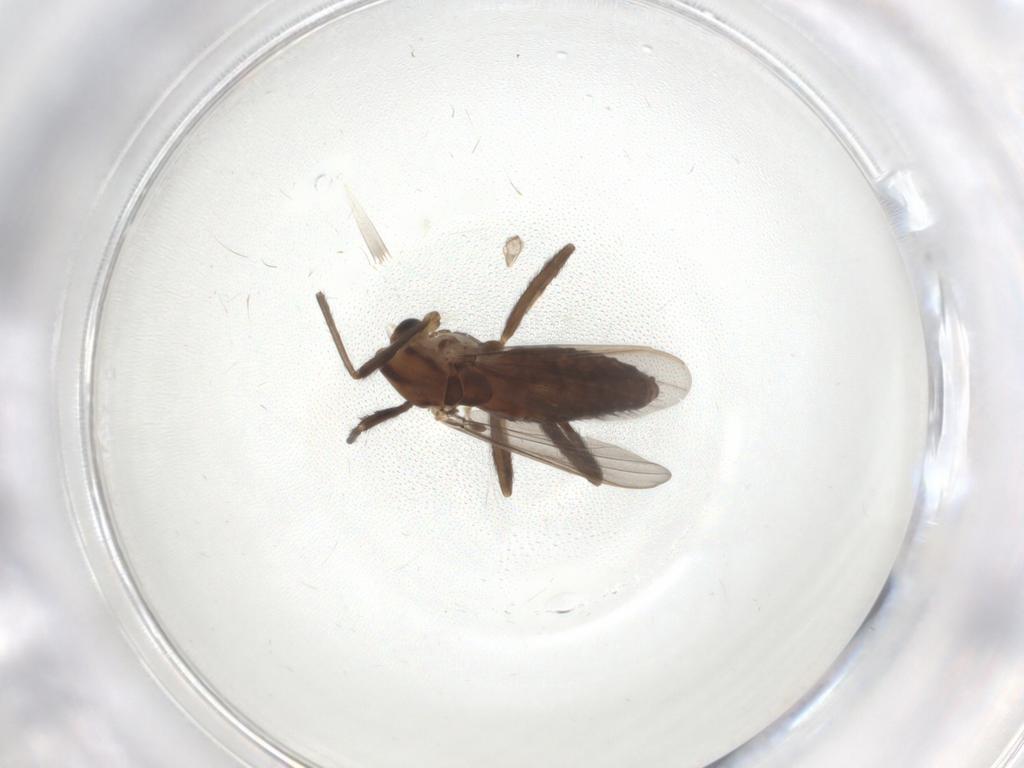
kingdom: Animalia
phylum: Arthropoda
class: Insecta
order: Diptera
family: Chironomidae
